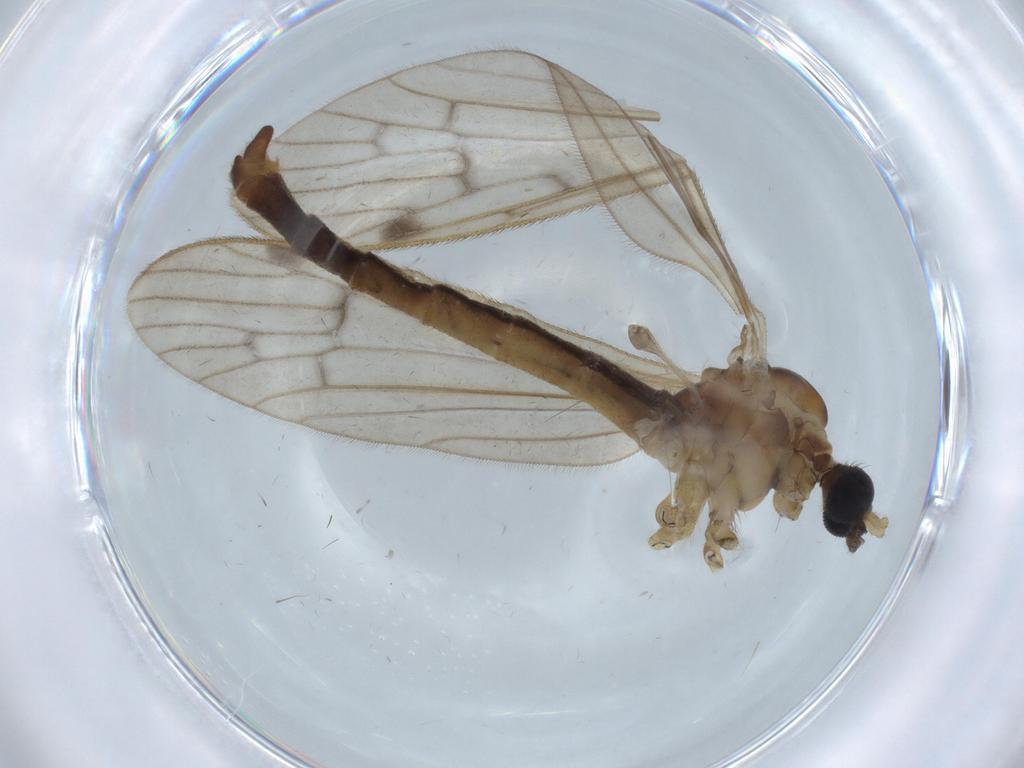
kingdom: Animalia
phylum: Arthropoda
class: Insecta
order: Diptera
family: Phoridae
